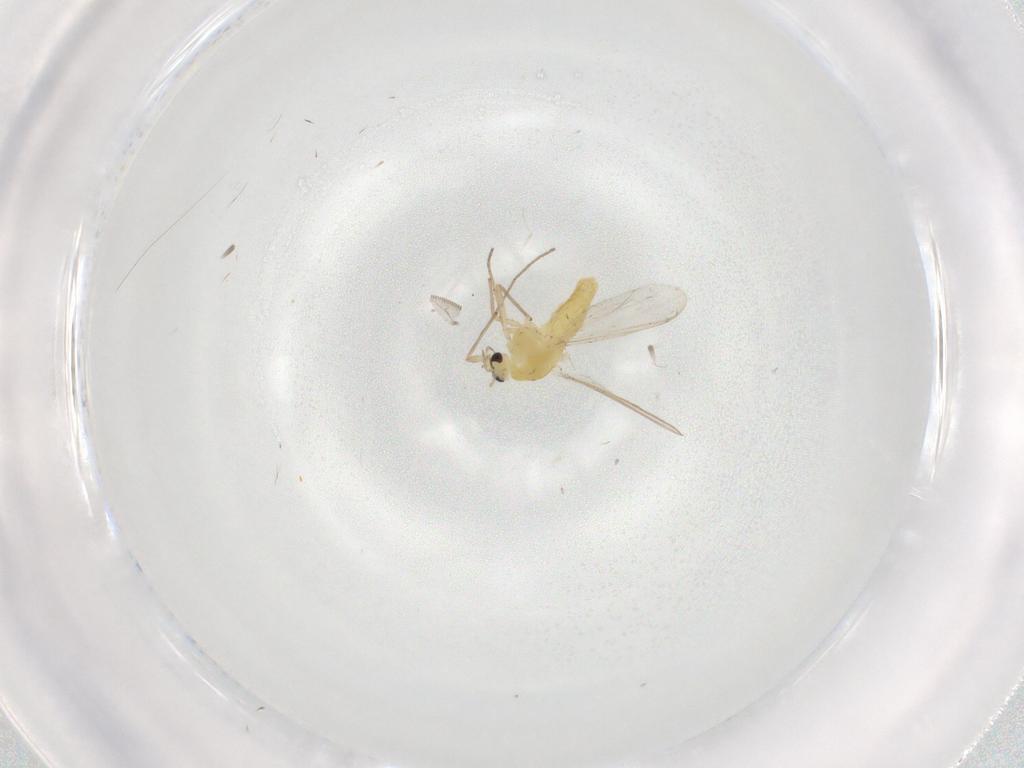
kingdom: Animalia
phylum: Arthropoda
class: Insecta
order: Diptera
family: Chironomidae
